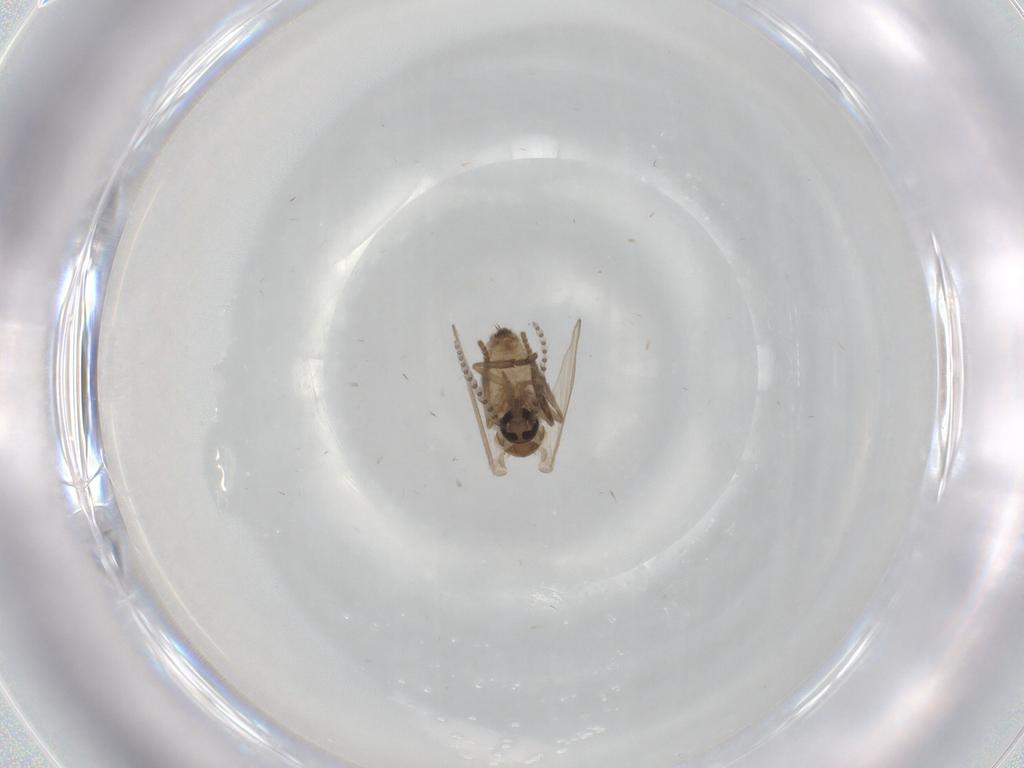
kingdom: Animalia
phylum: Arthropoda
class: Insecta
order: Diptera
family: Psychodidae
